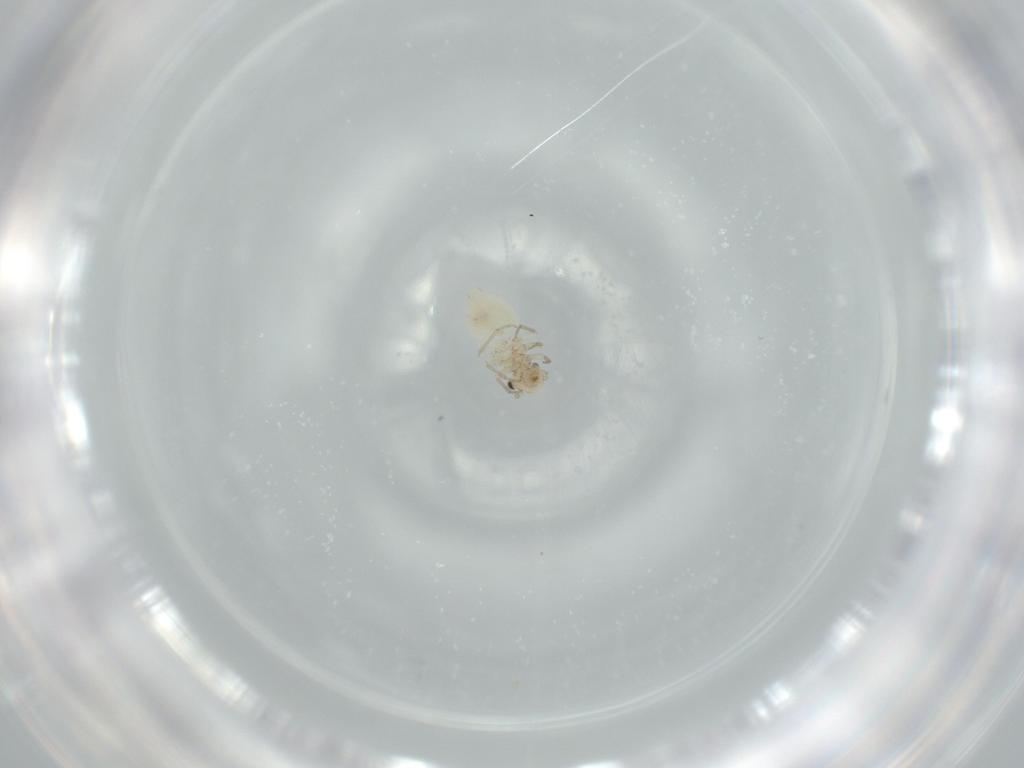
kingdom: Animalia
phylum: Arthropoda
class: Insecta
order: Psocodea
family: Lachesillidae
